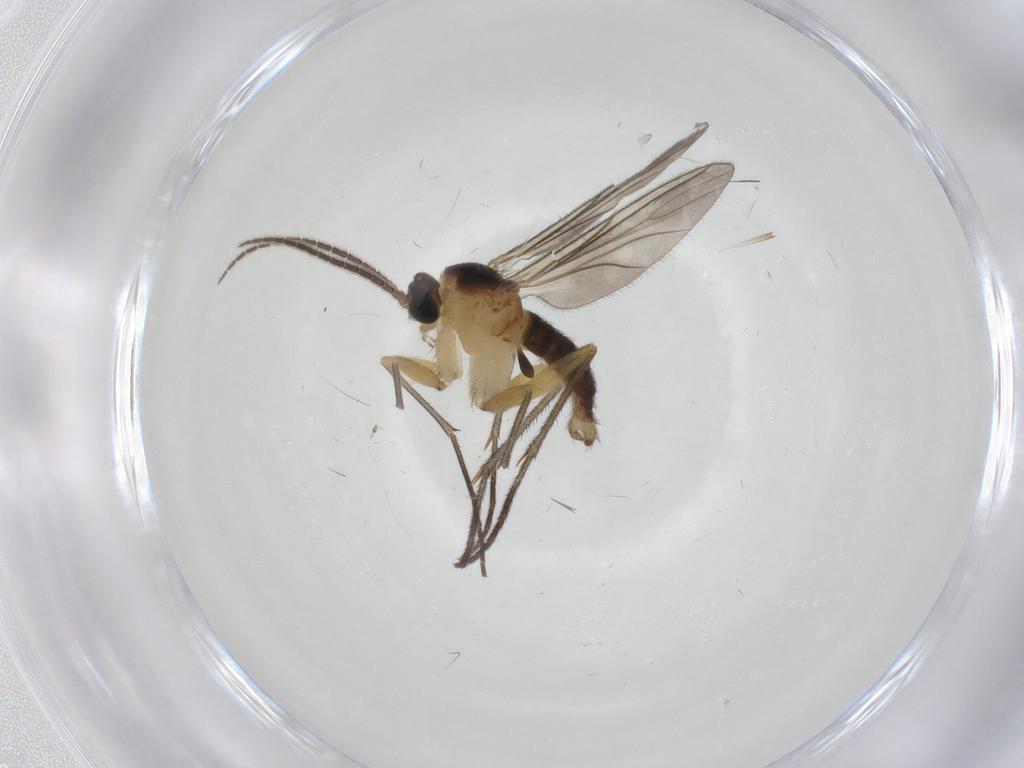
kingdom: Animalia
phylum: Arthropoda
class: Insecta
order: Diptera
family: Sciaridae
